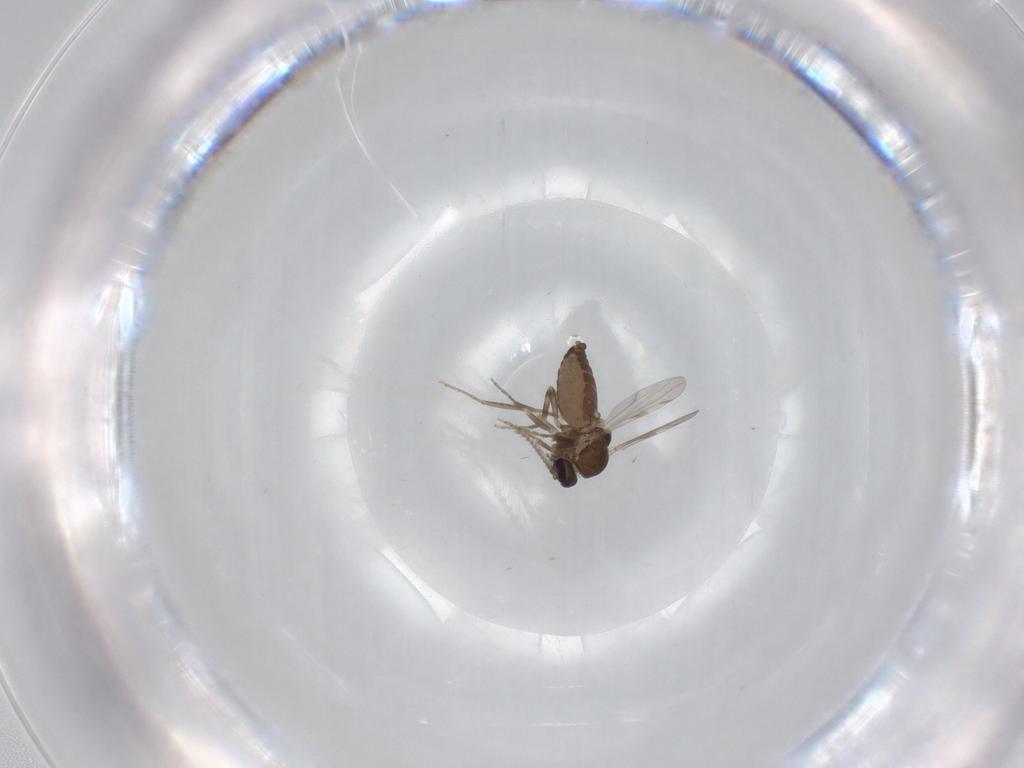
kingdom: Animalia
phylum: Arthropoda
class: Insecta
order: Diptera
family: Ceratopogonidae
